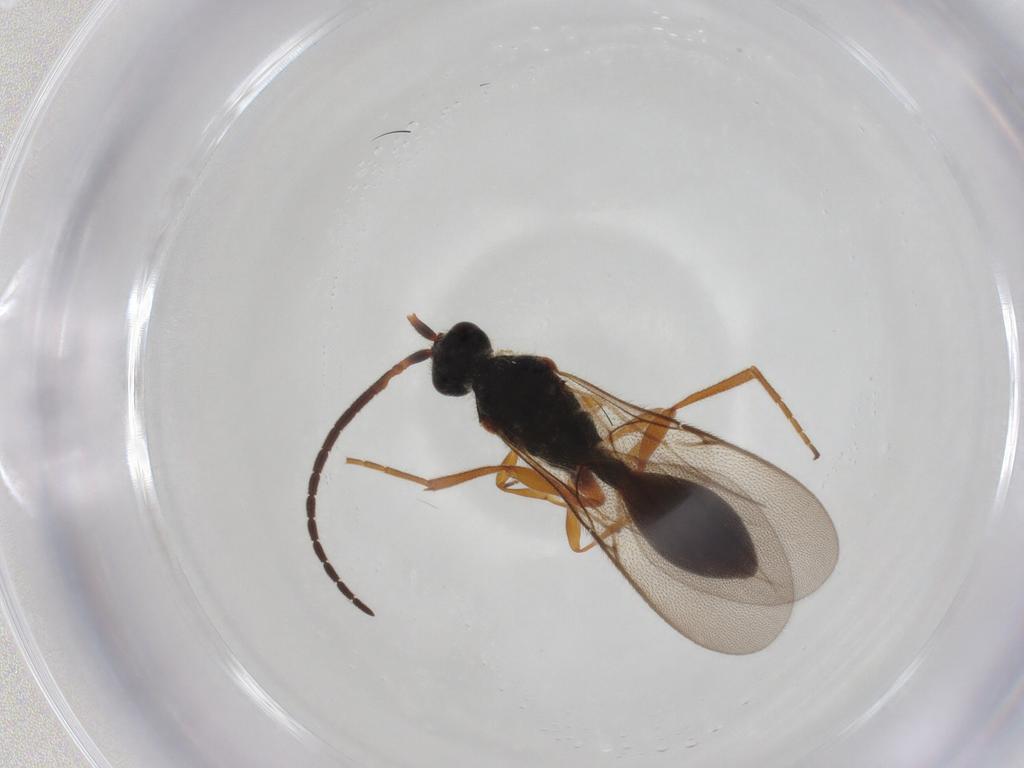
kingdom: Animalia
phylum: Arthropoda
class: Insecta
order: Hymenoptera
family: Diapriidae
